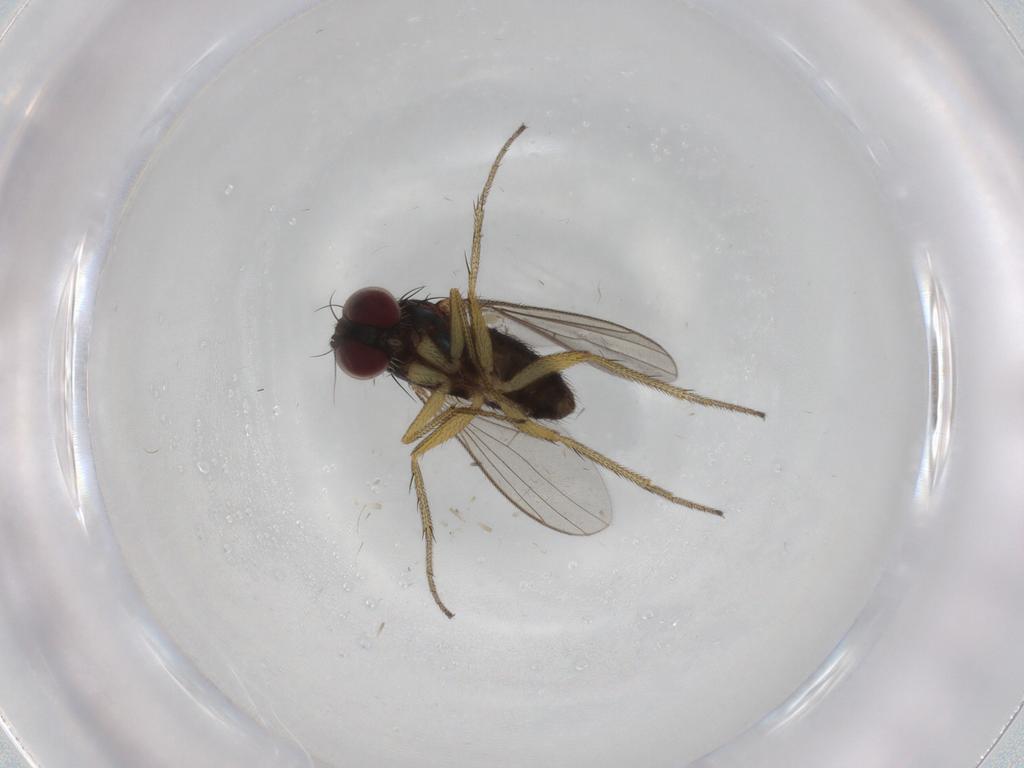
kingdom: Animalia
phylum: Arthropoda
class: Insecta
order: Diptera
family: Dolichopodidae
